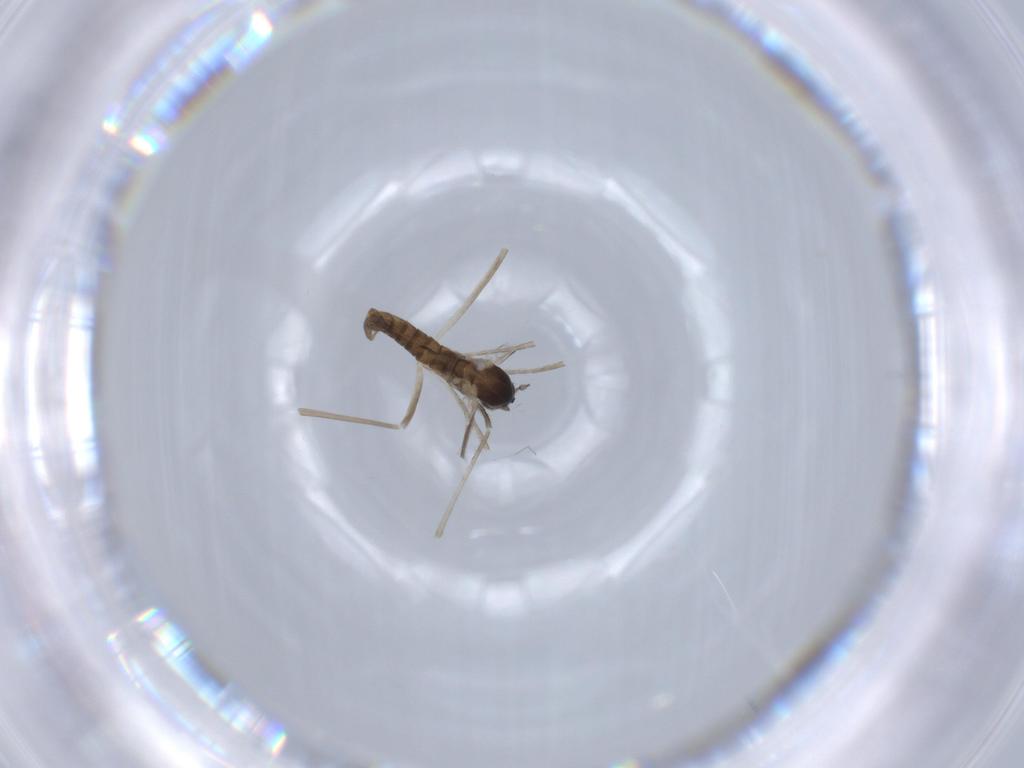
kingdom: Animalia
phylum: Arthropoda
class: Insecta
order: Diptera
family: Cecidomyiidae
